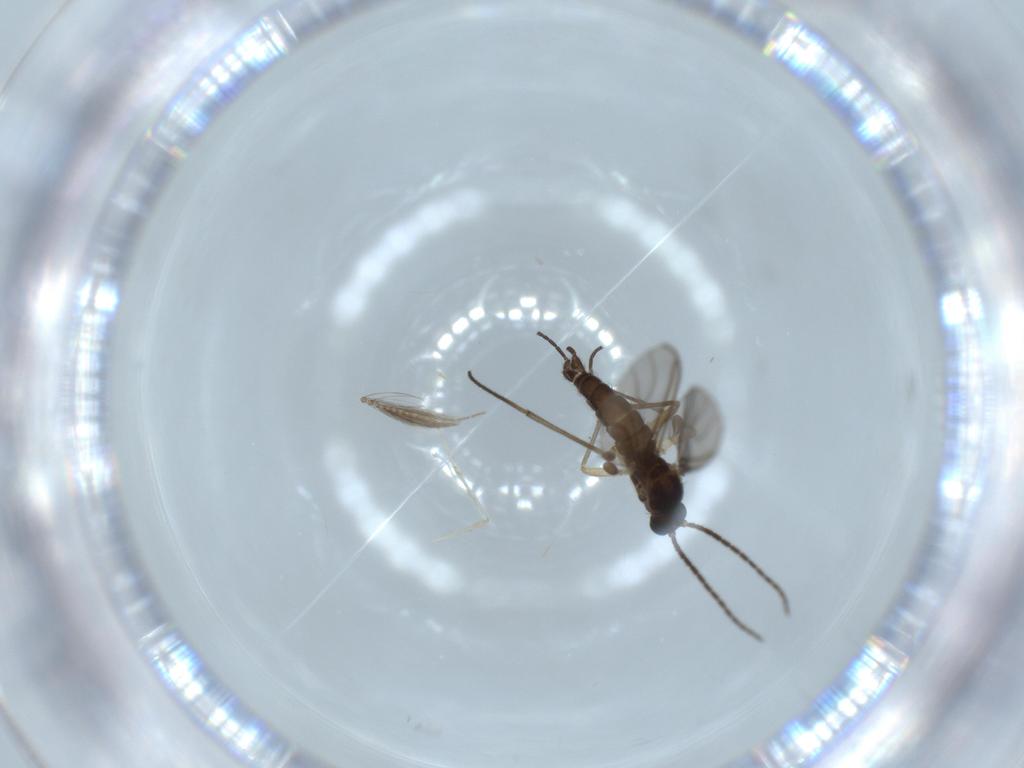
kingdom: Animalia
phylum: Arthropoda
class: Insecta
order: Diptera
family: Sciaridae
